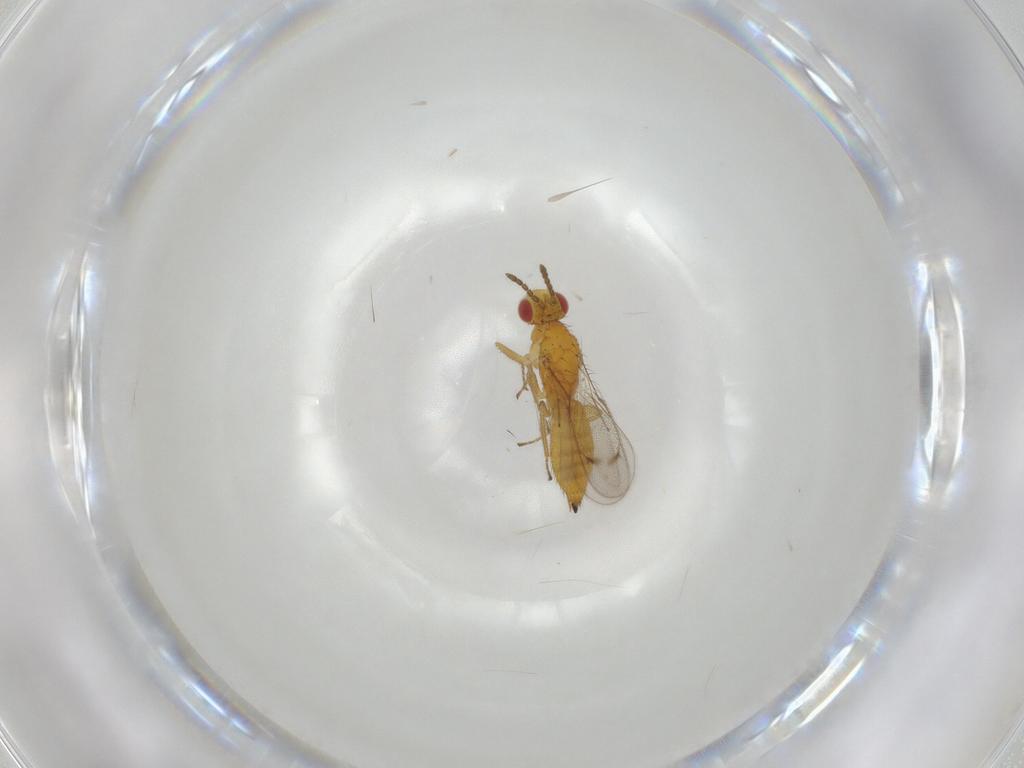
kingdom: Animalia
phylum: Arthropoda
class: Insecta
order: Hymenoptera
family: Eulophidae
